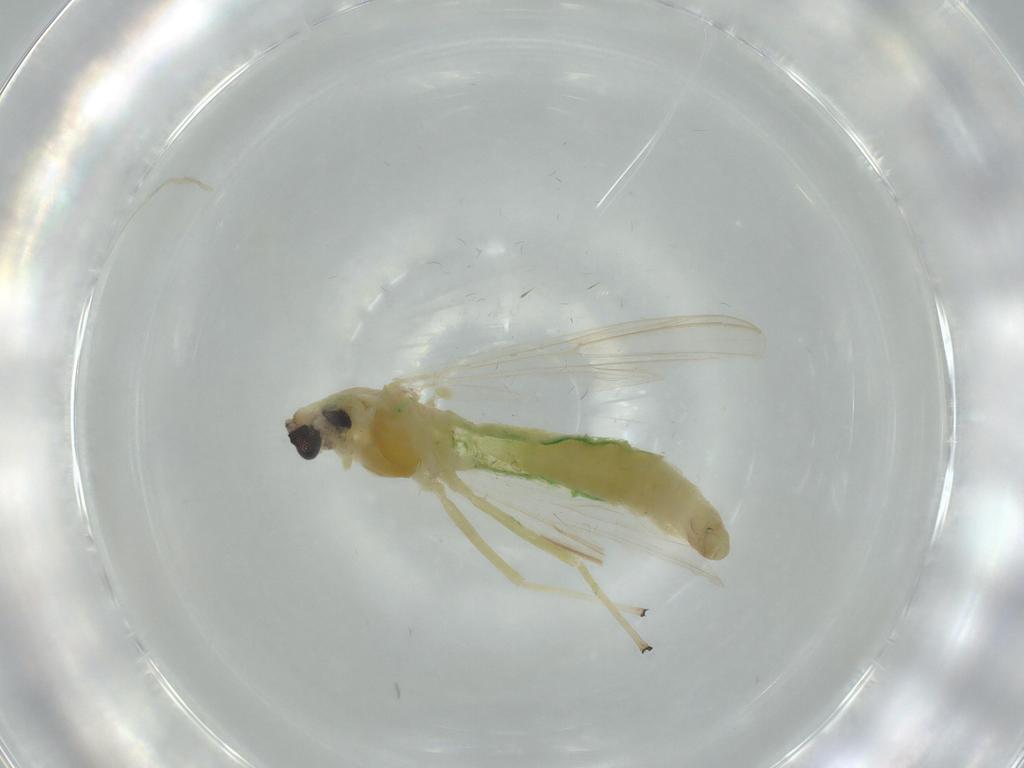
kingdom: Animalia
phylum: Arthropoda
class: Insecta
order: Diptera
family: Chironomidae
